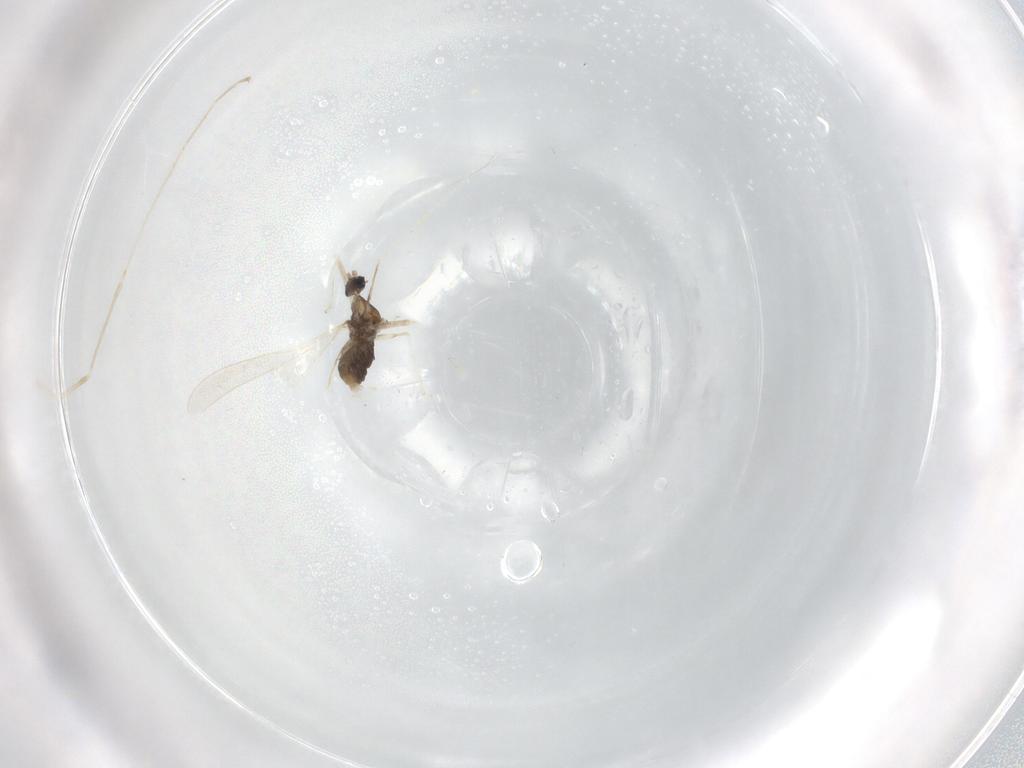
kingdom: Animalia
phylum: Arthropoda
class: Insecta
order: Diptera
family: Cecidomyiidae
